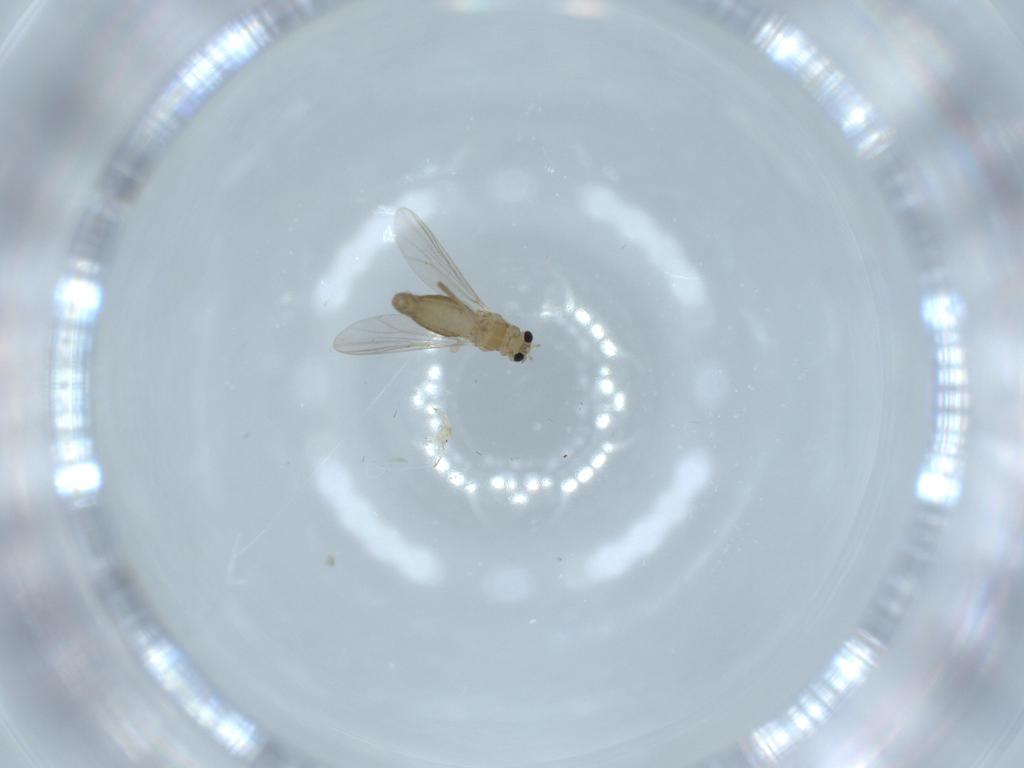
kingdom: Animalia
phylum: Arthropoda
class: Insecta
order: Diptera
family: Chironomidae
